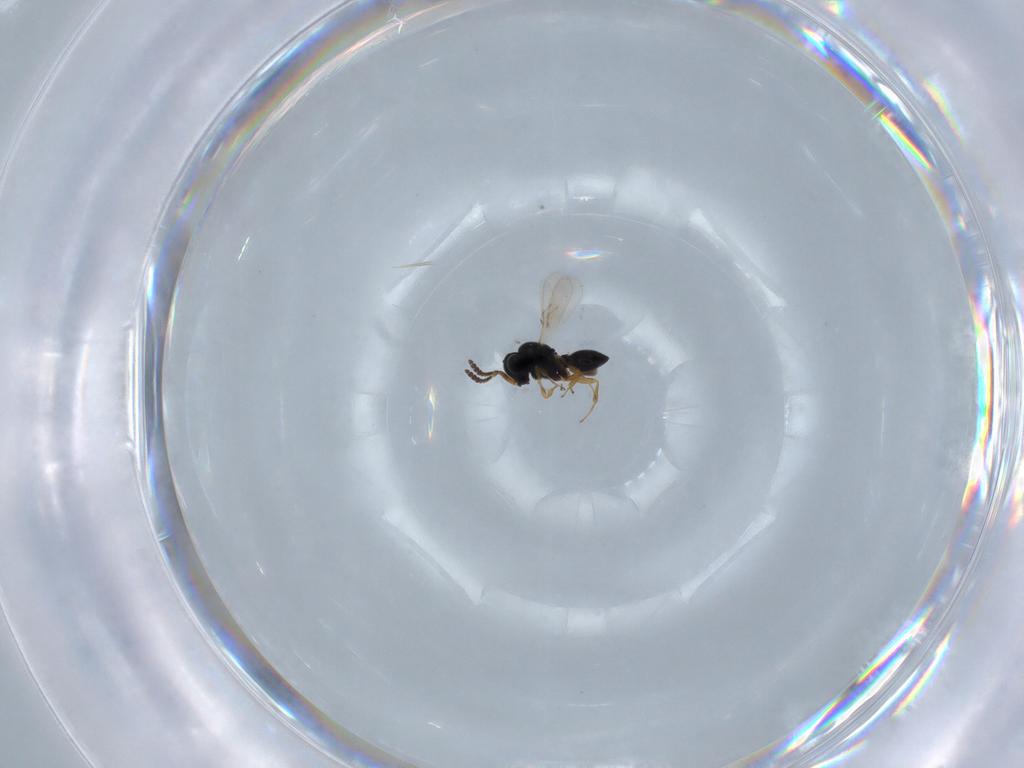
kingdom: Animalia
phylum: Arthropoda
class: Insecta
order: Hymenoptera
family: Scelionidae
